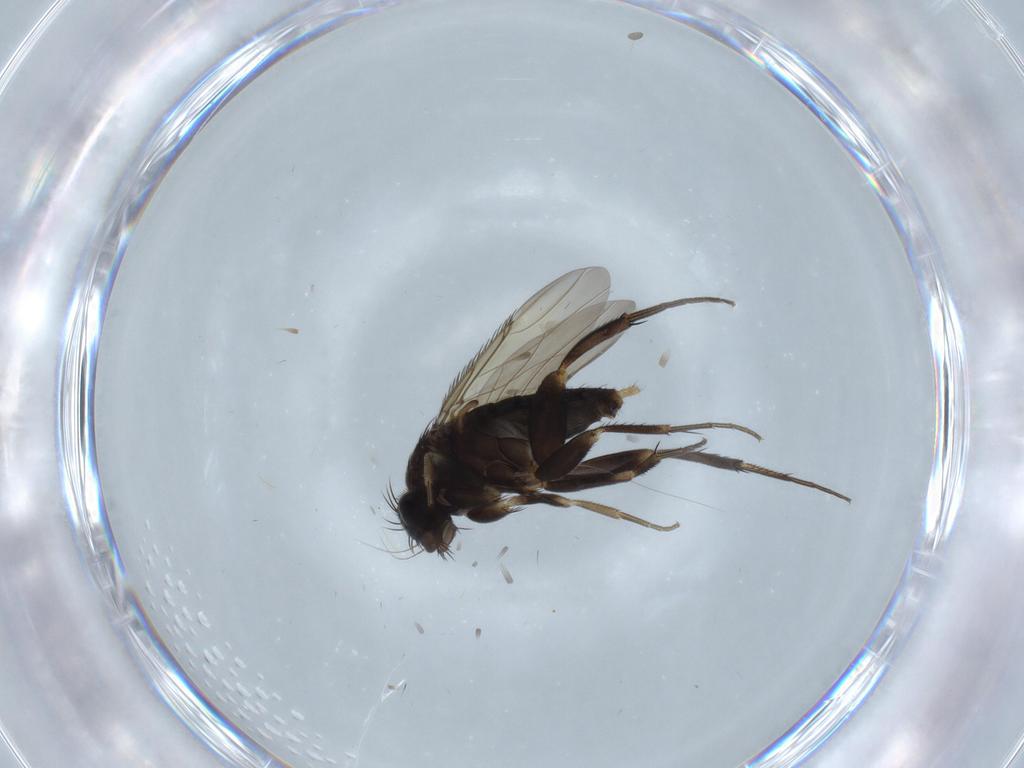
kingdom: Animalia
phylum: Arthropoda
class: Insecta
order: Diptera
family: Phoridae
